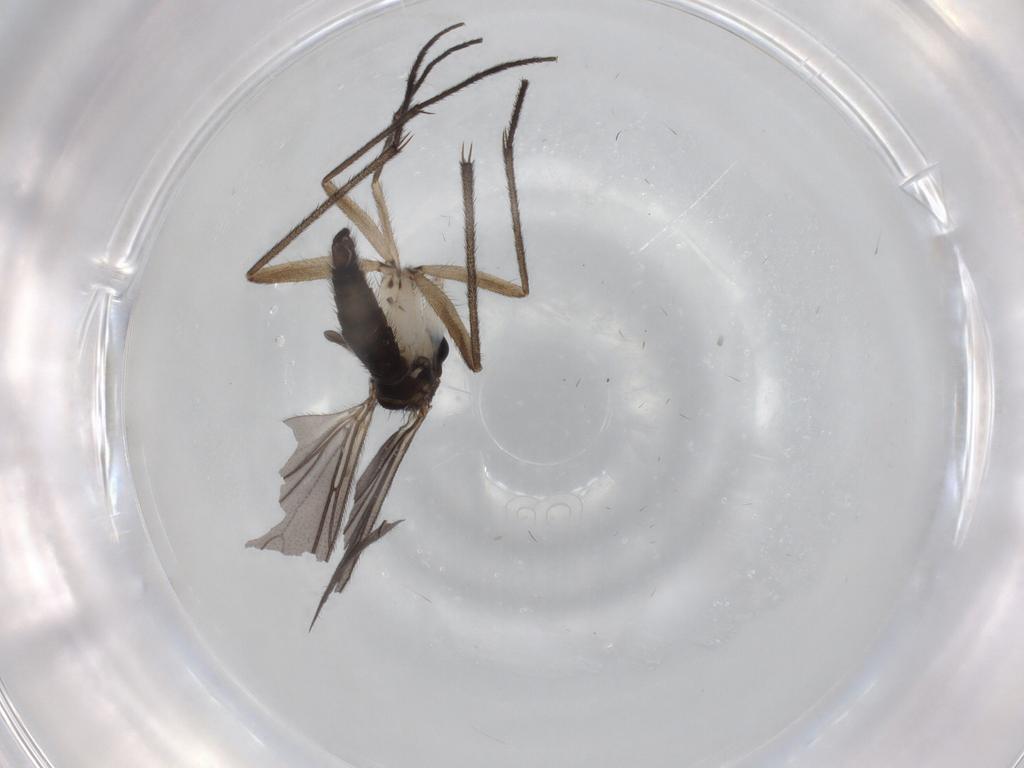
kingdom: Animalia
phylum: Arthropoda
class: Insecta
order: Diptera
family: Sciaridae
